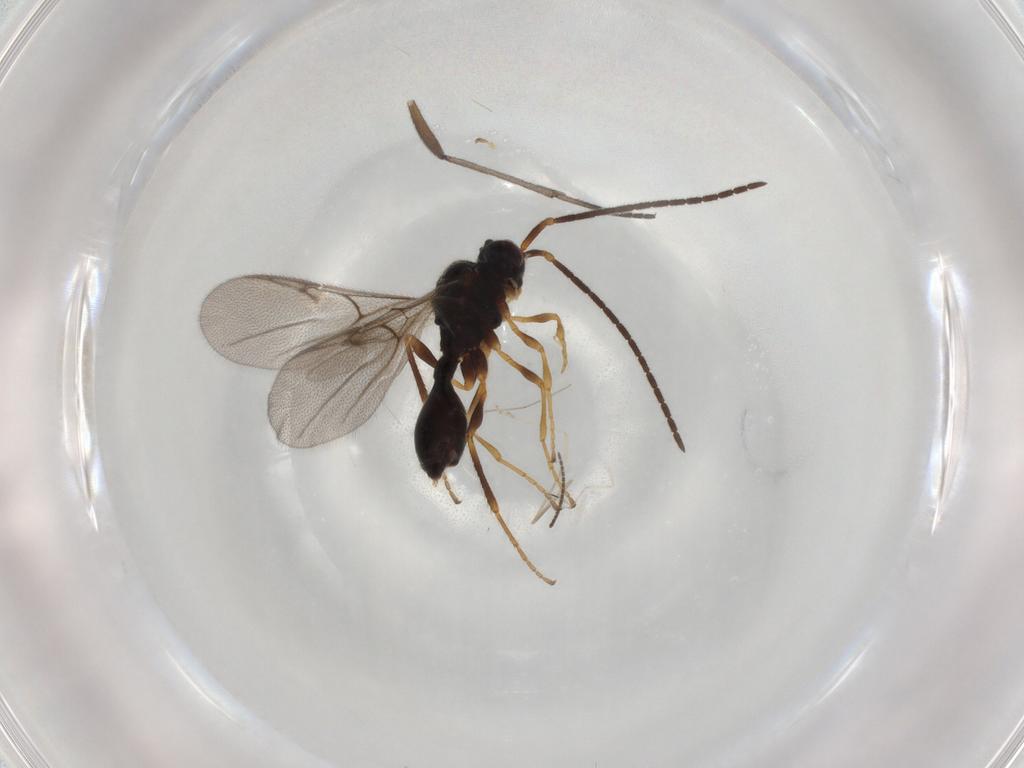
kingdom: Animalia
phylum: Arthropoda
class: Insecta
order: Hymenoptera
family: Diapriidae
